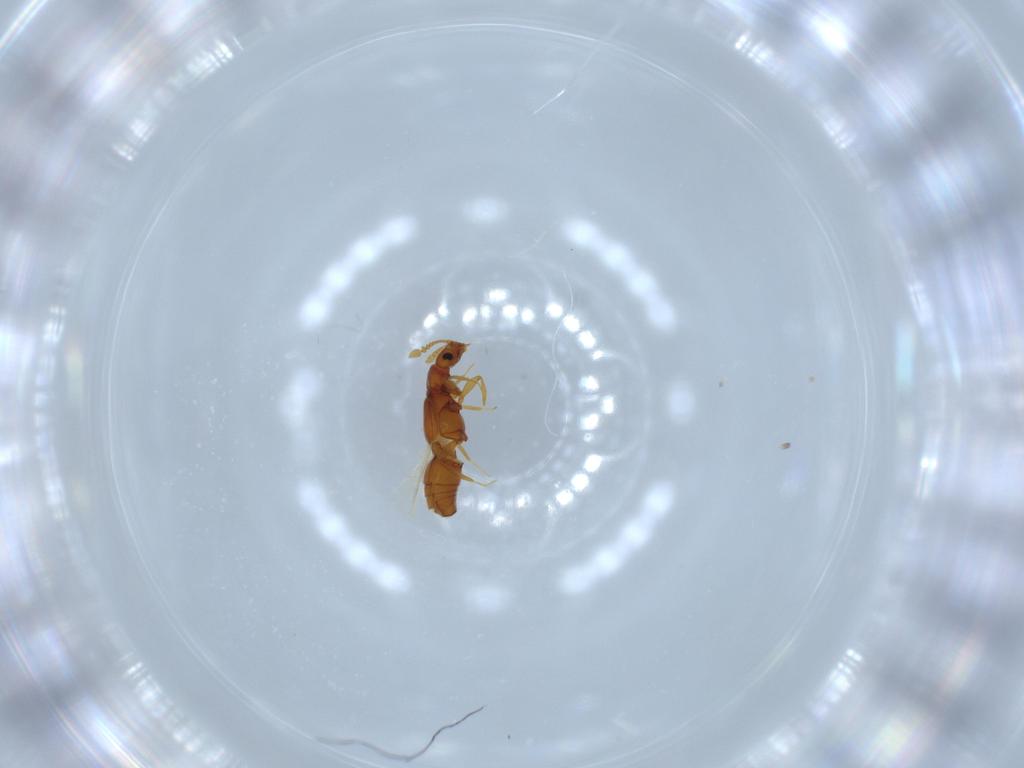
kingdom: Animalia
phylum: Arthropoda
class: Insecta
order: Coleoptera
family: Staphylinidae
